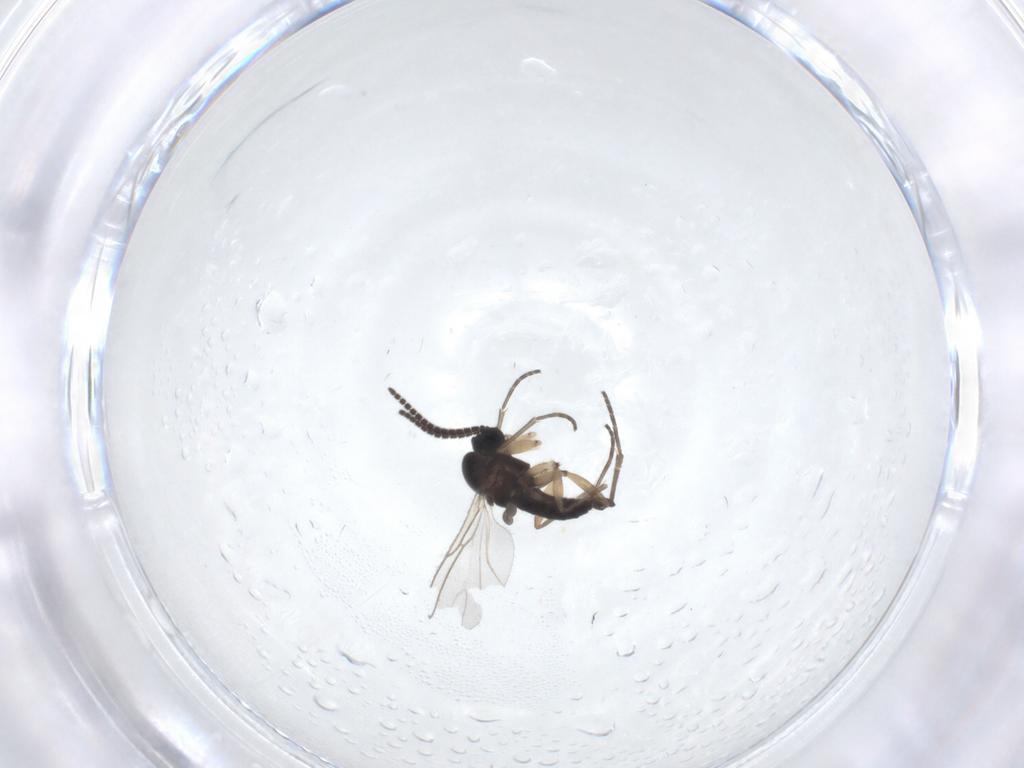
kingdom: Animalia
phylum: Arthropoda
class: Insecta
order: Diptera
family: Sciaridae
